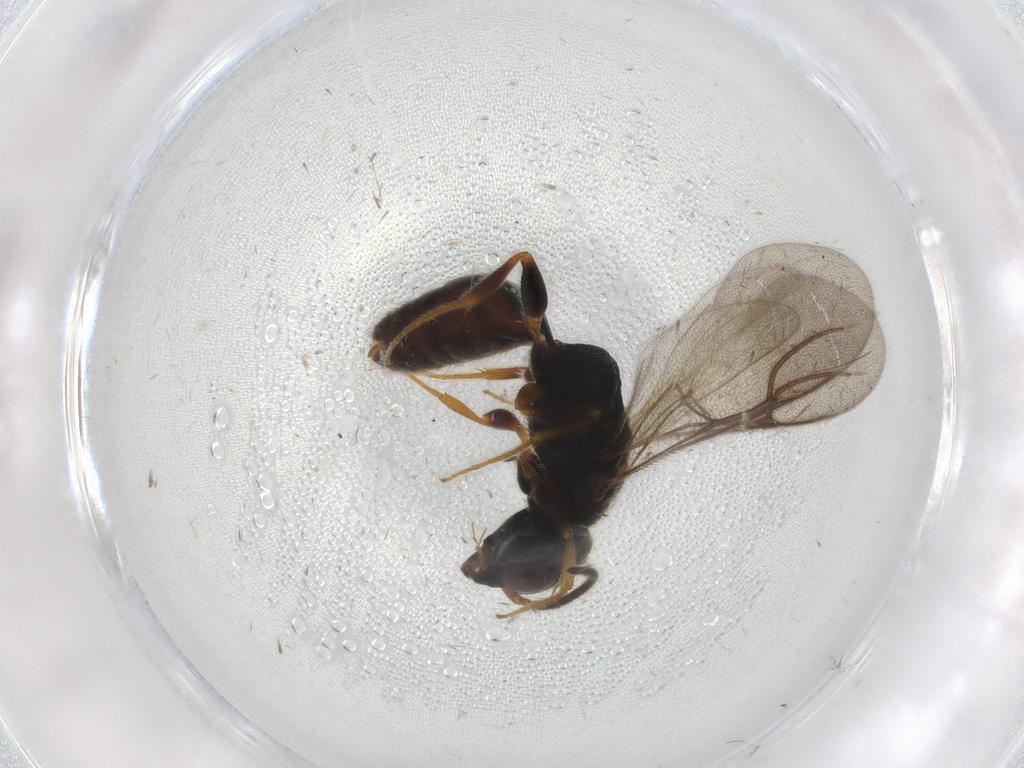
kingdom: Animalia
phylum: Arthropoda
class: Insecta
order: Hymenoptera
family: Bethylidae
